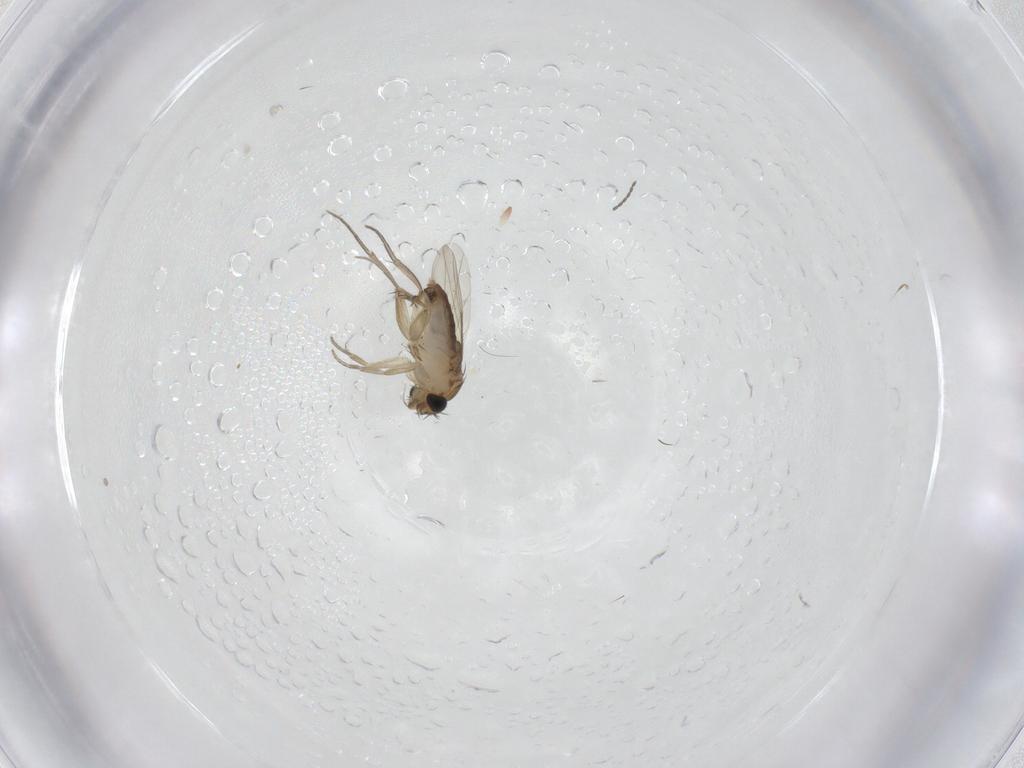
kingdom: Animalia
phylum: Arthropoda
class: Insecta
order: Diptera
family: Phoridae
